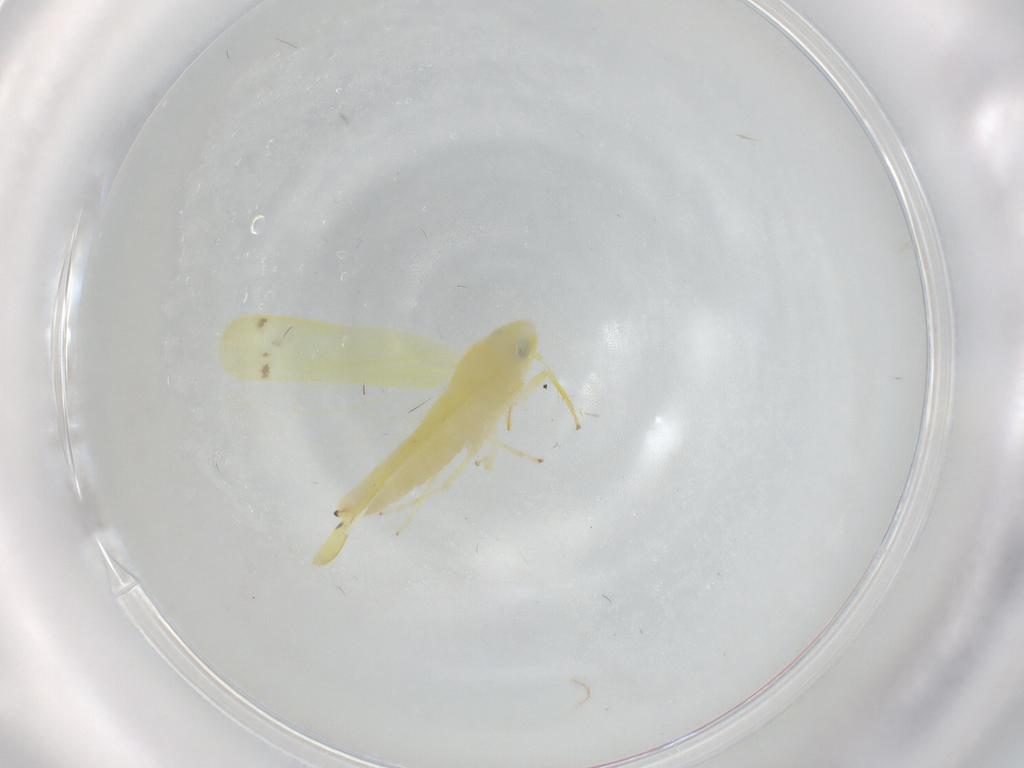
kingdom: Animalia
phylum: Arthropoda
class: Insecta
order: Hemiptera
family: Cicadellidae
